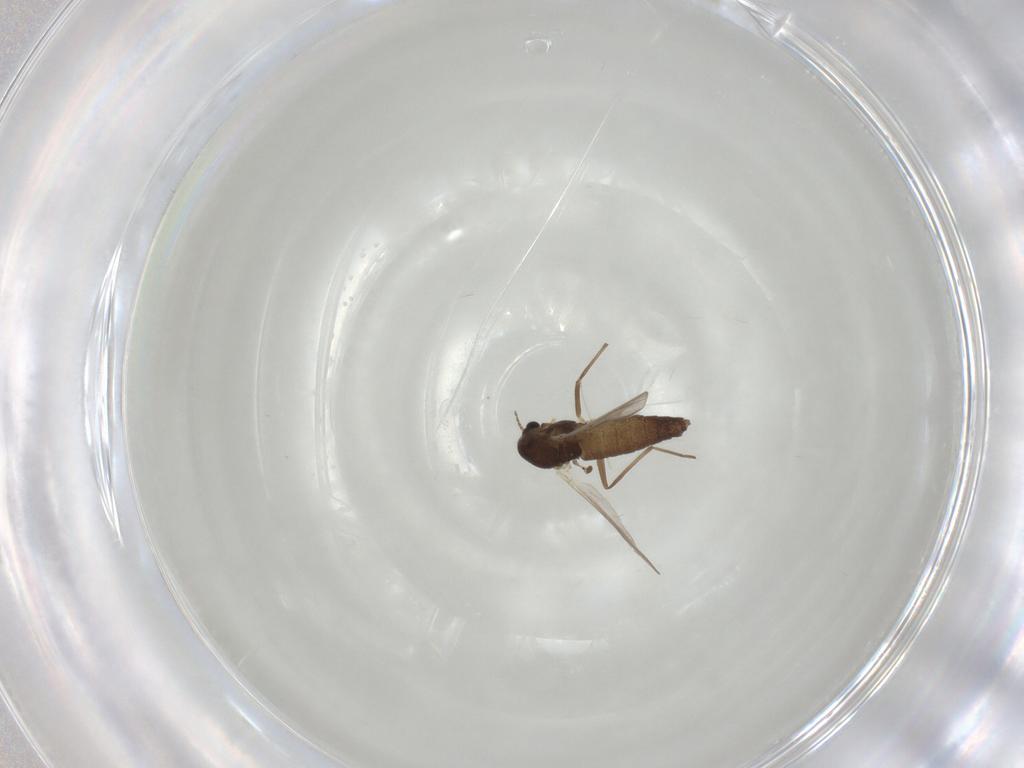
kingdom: Animalia
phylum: Arthropoda
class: Insecta
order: Diptera
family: Chironomidae
